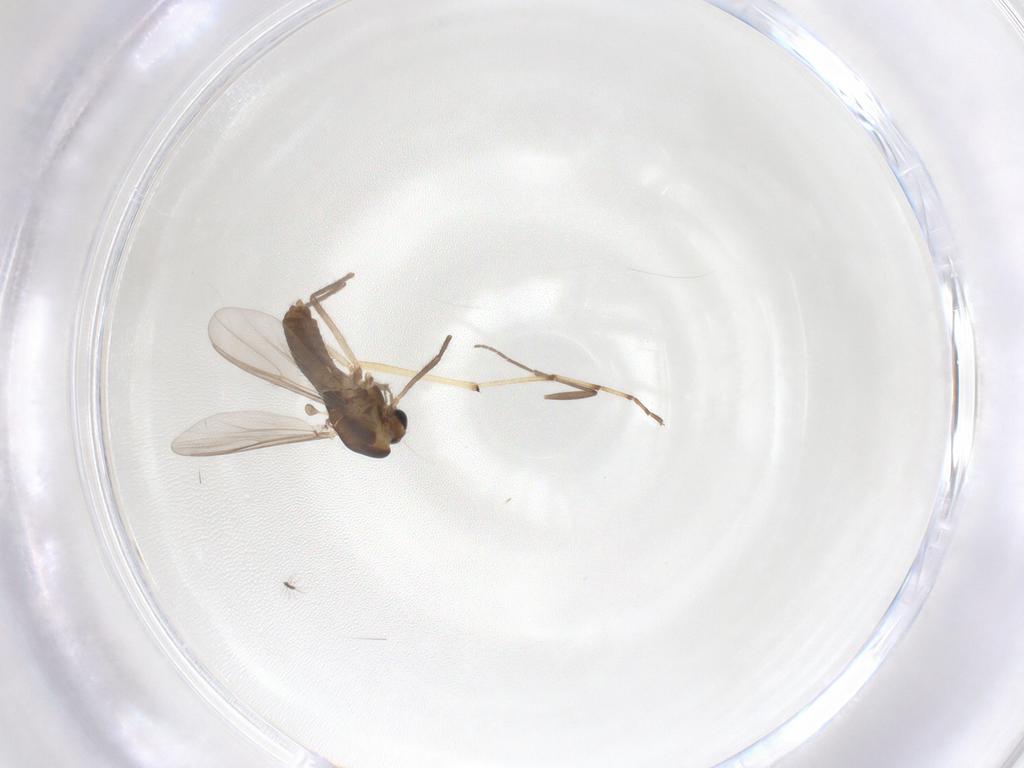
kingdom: Animalia
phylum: Arthropoda
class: Insecta
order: Diptera
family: Chironomidae
